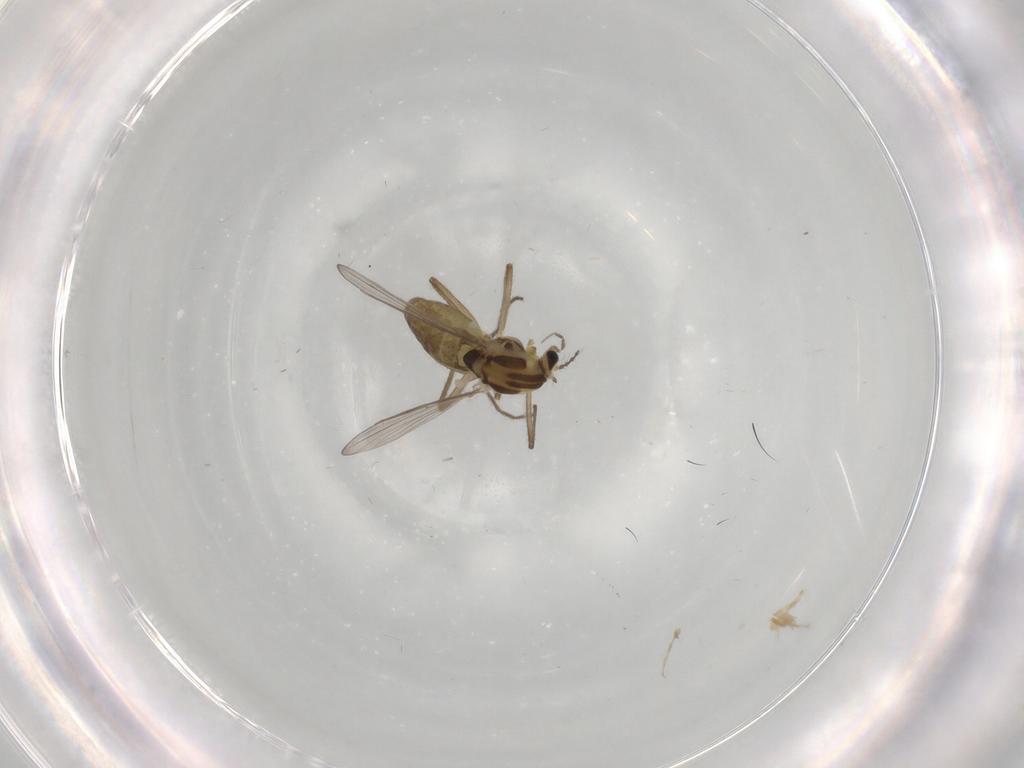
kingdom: Animalia
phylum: Arthropoda
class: Insecta
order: Diptera
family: Chironomidae
